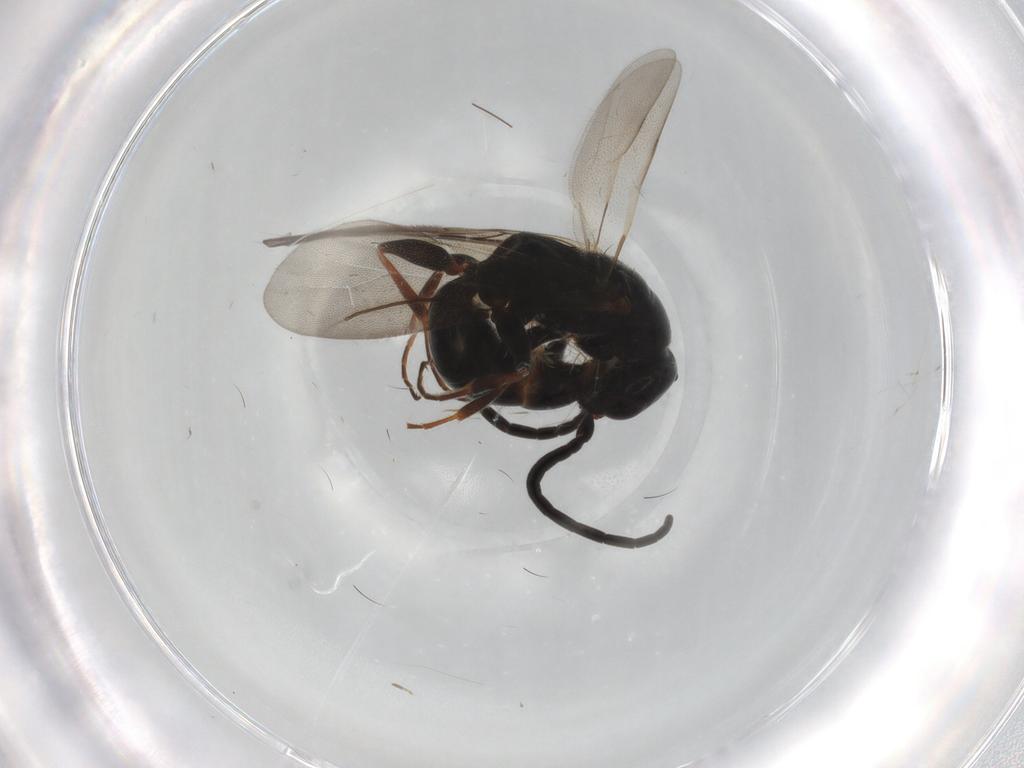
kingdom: Animalia
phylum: Arthropoda
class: Insecta
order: Hymenoptera
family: Bethylidae
